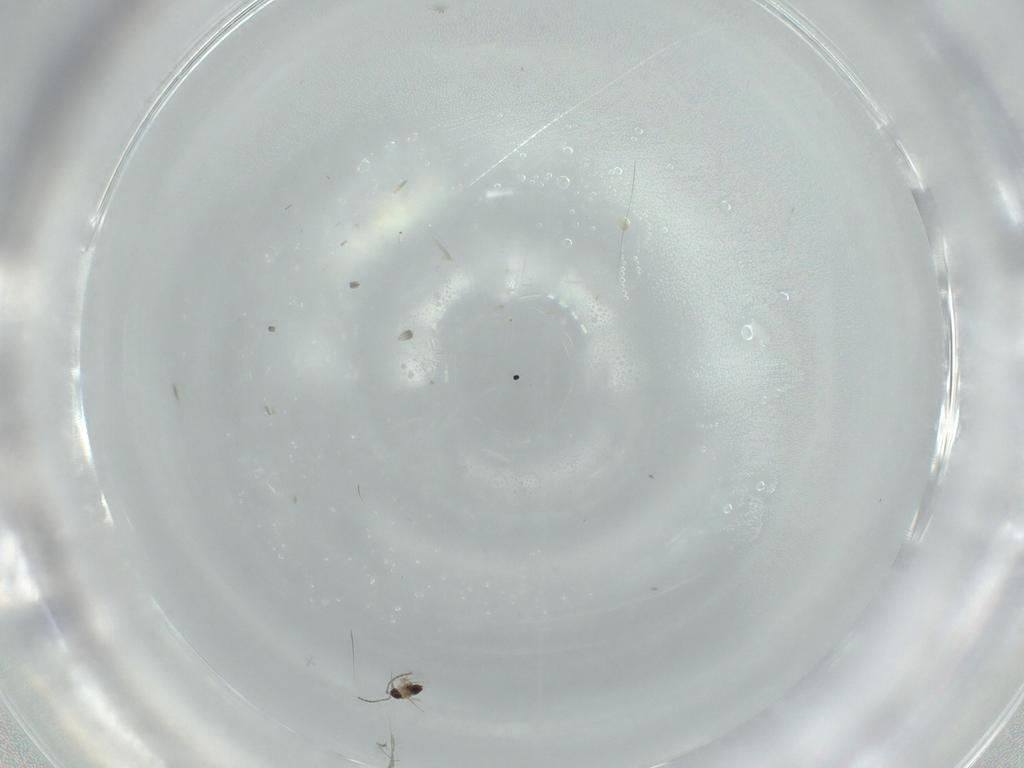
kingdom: Animalia
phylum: Arthropoda
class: Insecta
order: Hymenoptera
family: Figitidae
